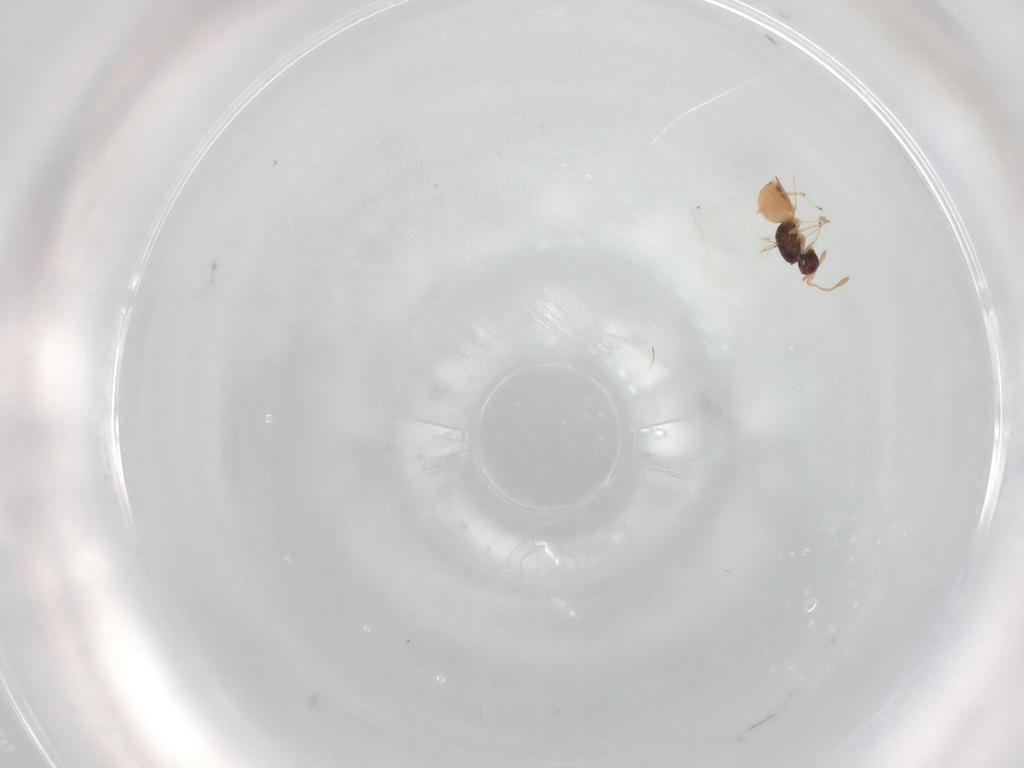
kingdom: Animalia
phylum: Arthropoda
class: Insecta
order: Hymenoptera
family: Mymaridae
